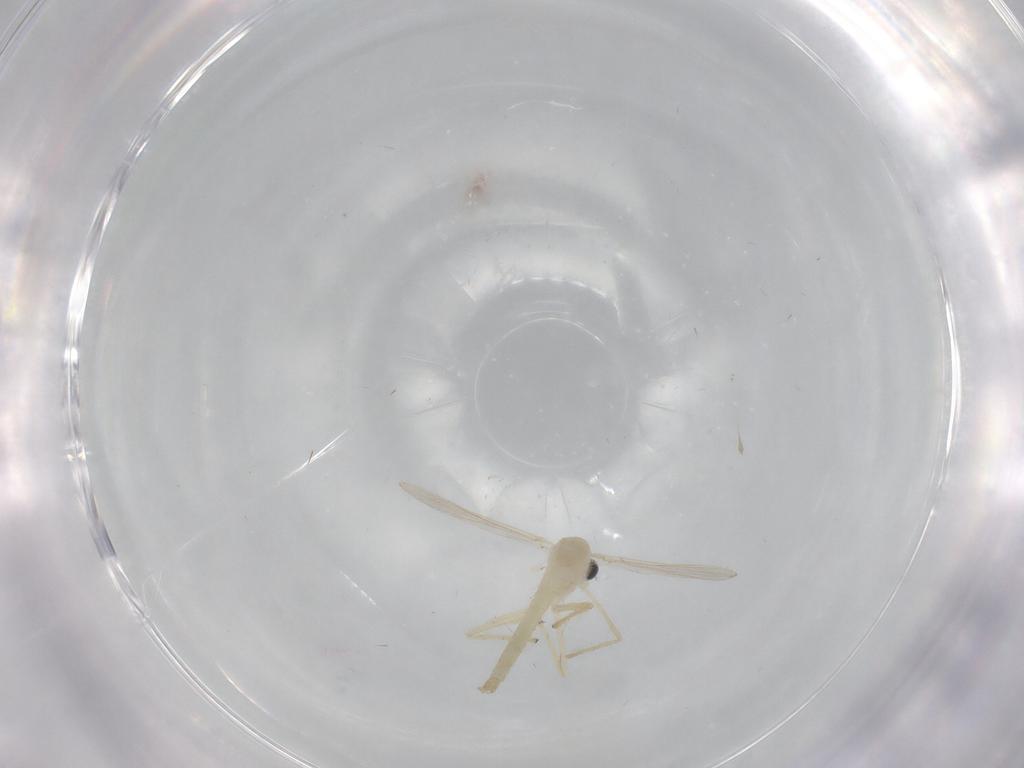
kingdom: Animalia
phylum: Arthropoda
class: Insecta
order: Diptera
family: Chironomidae
